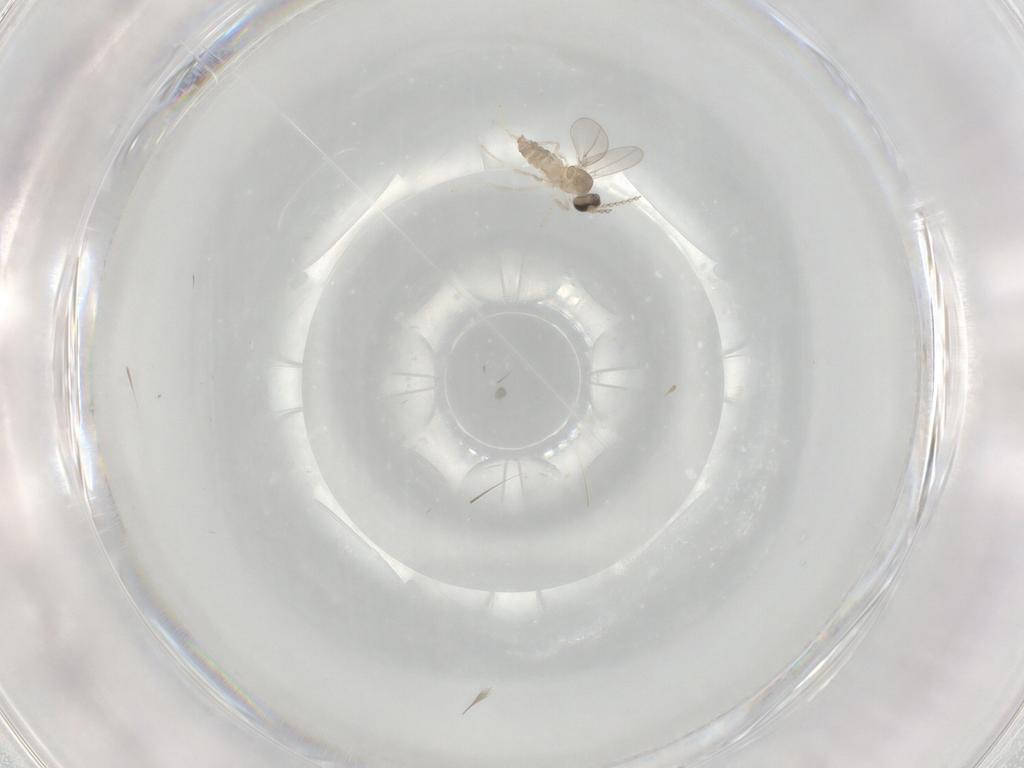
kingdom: Animalia
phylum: Arthropoda
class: Insecta
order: Diptera
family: Cecidomyiidae
